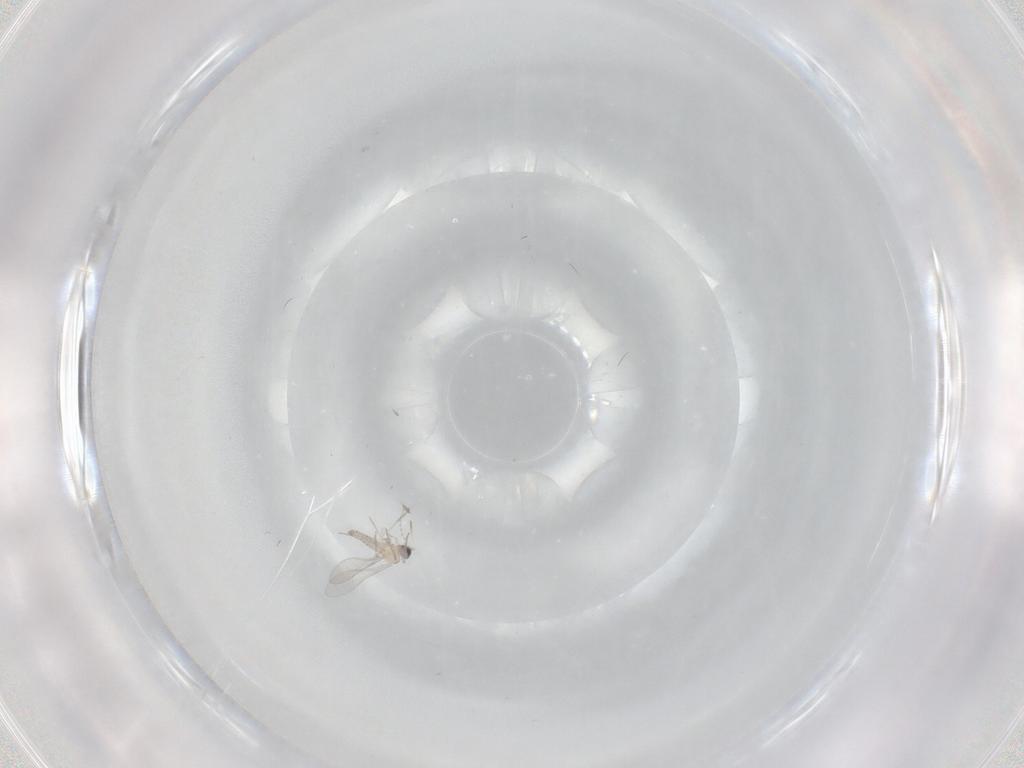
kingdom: Animalia
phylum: Arthropoda
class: Insecta
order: Diptera
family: Cecidomyiidae
